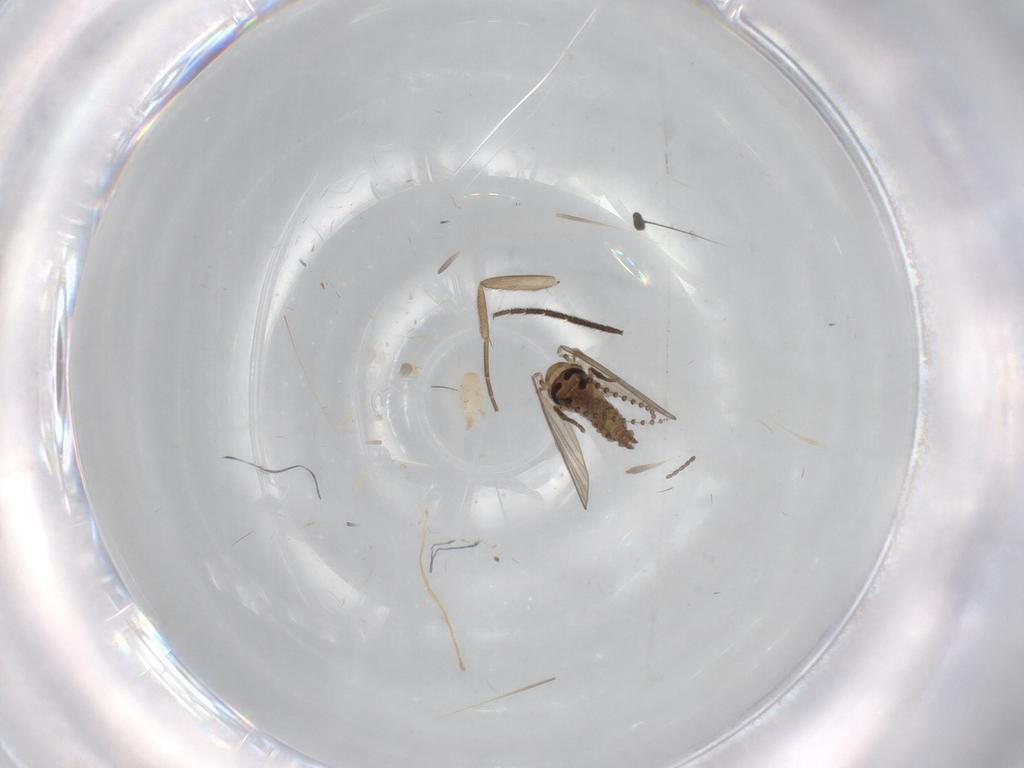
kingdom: Animalia
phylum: Arthropoda
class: Insecta
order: Diptera
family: Psychodidae
